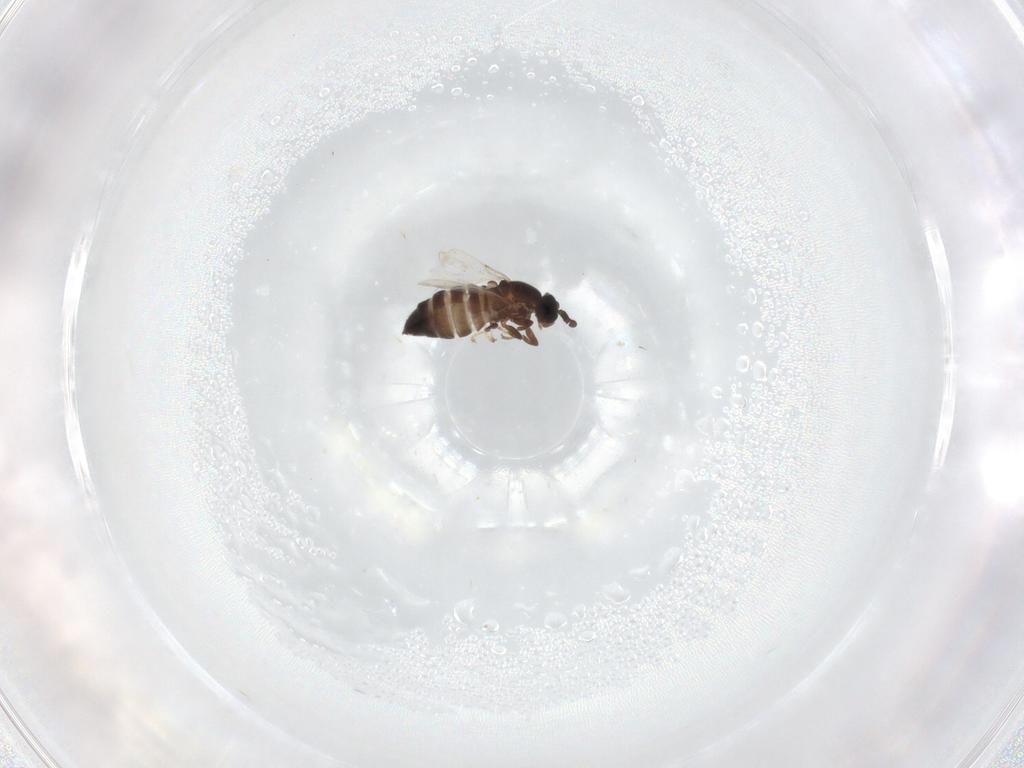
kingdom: Animalia
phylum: Arthropoda
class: Insecta
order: Diptera
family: Scatopsidae
